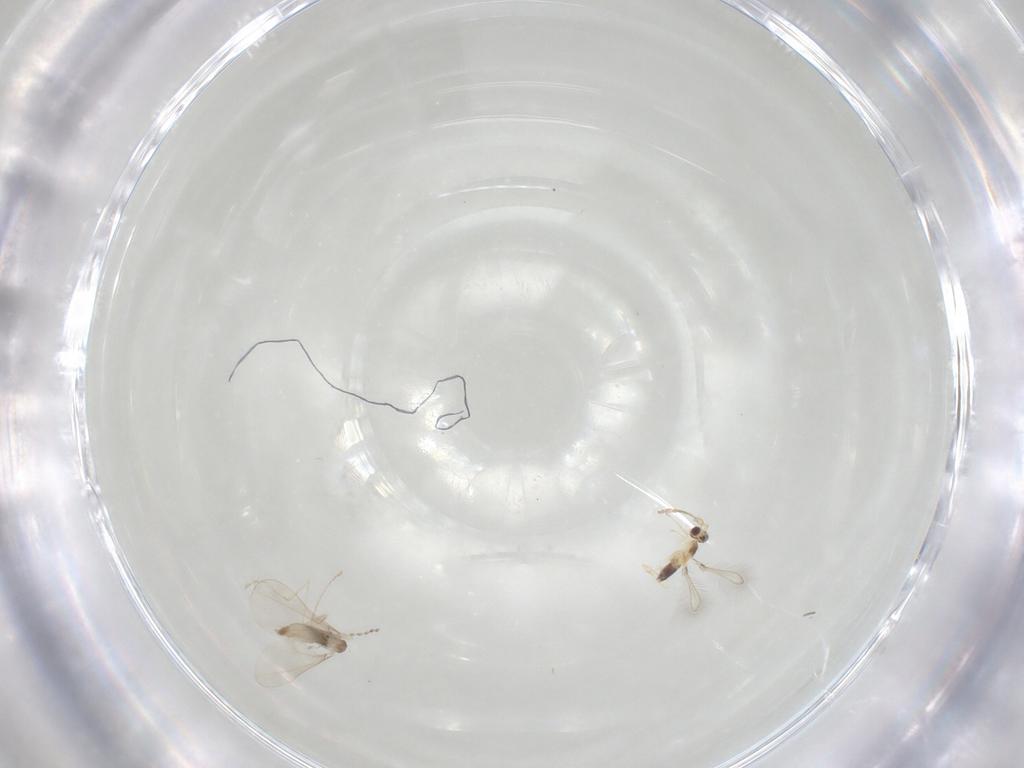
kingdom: Animalia
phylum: Arthropoda
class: Insecta
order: Diptera
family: Cecidomyiidae
